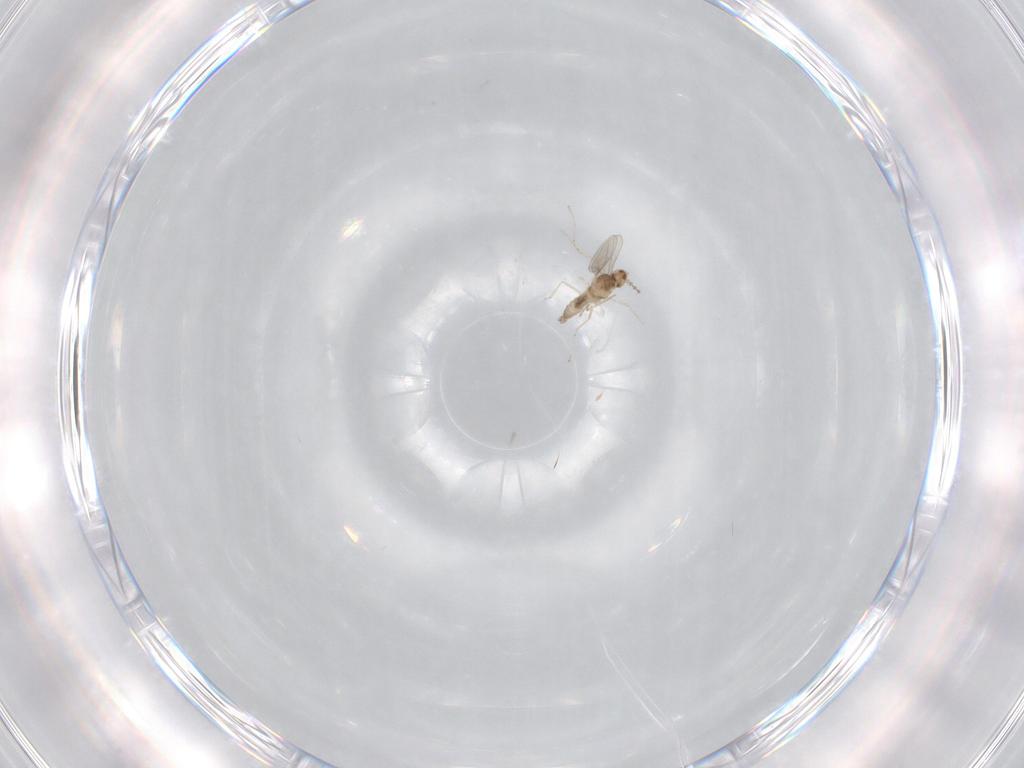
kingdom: Animalia
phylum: Arthropoda
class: Insecta
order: Diptera
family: Cecidomyiidae
